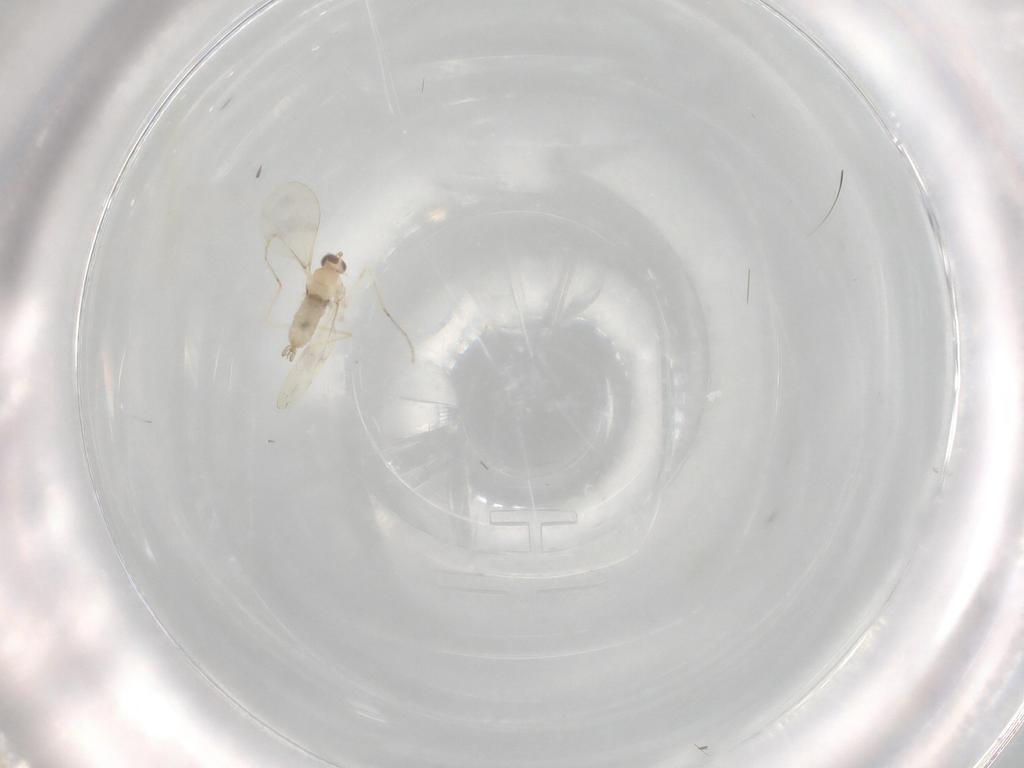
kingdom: Animalia
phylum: Arthropoda
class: Insecta
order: Diptera
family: Cecidomyiidae
